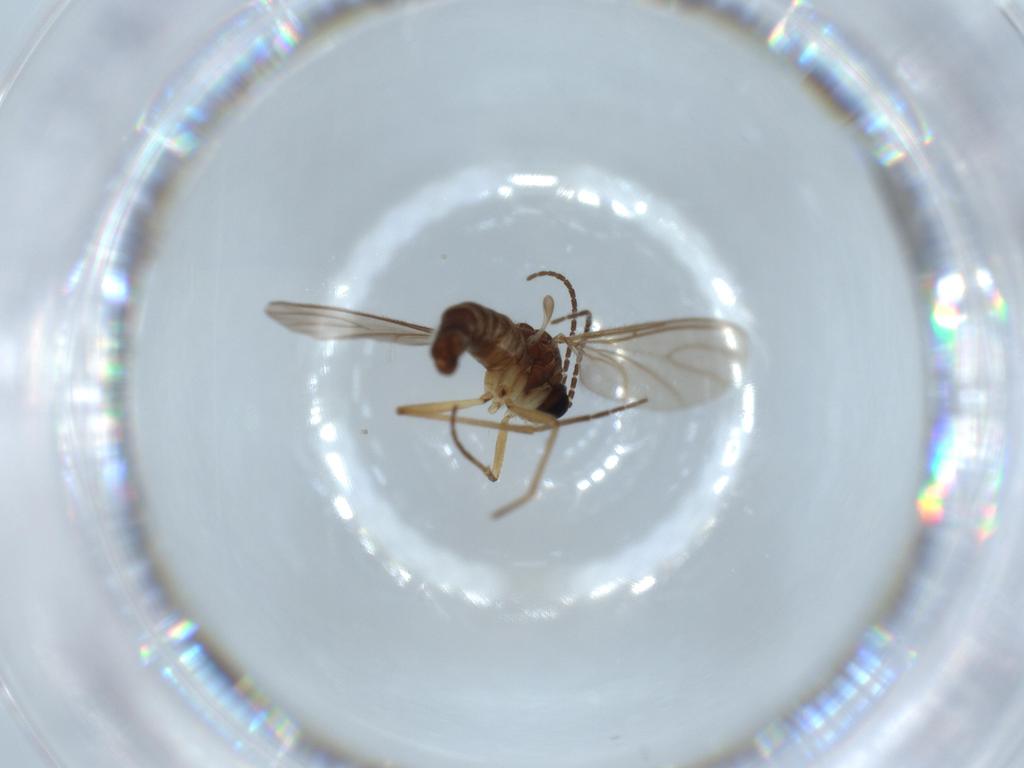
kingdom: Animalia
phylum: Arthropoda
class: Insecta
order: Diptera
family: Sciaridae
